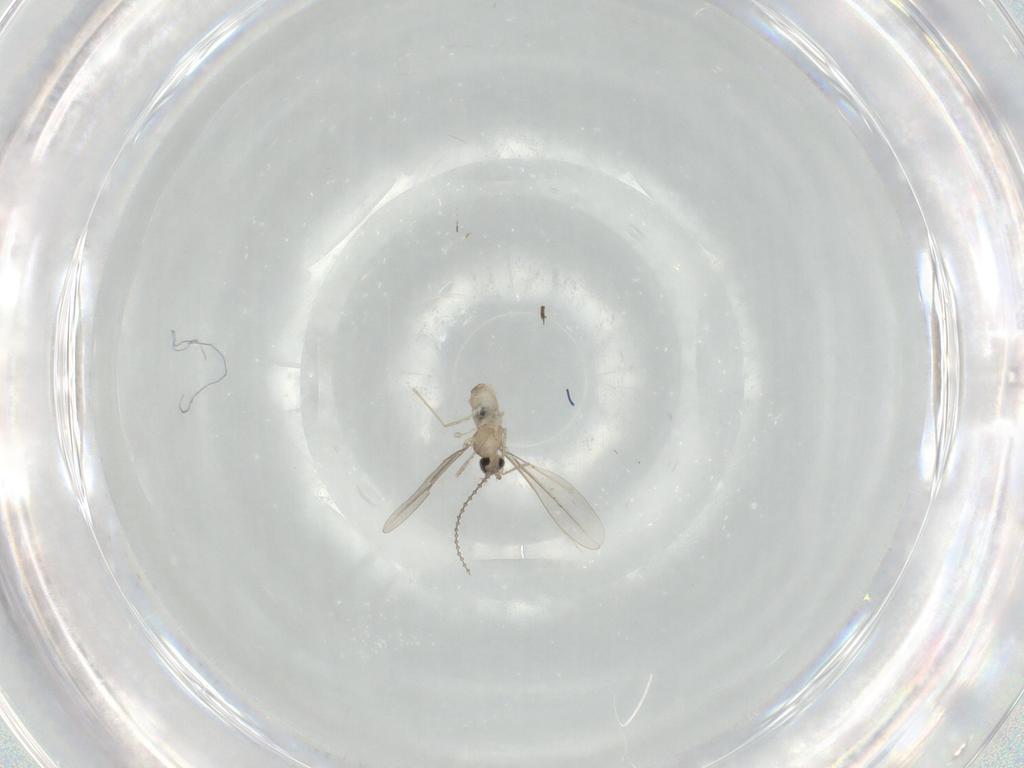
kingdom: Animalia
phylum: Arthropoda
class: Insecta
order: Diptera
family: Cecidomyiidae
